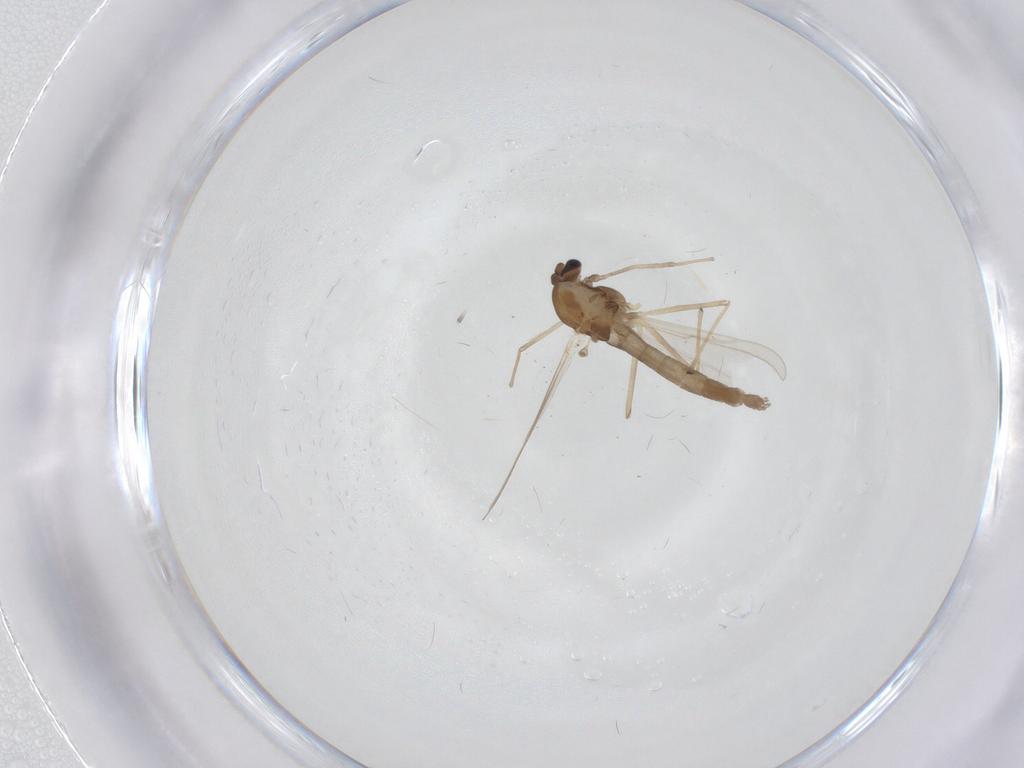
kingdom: Animalia
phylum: Arthropoda
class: Insecta
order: Diptera
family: Chironomidae
